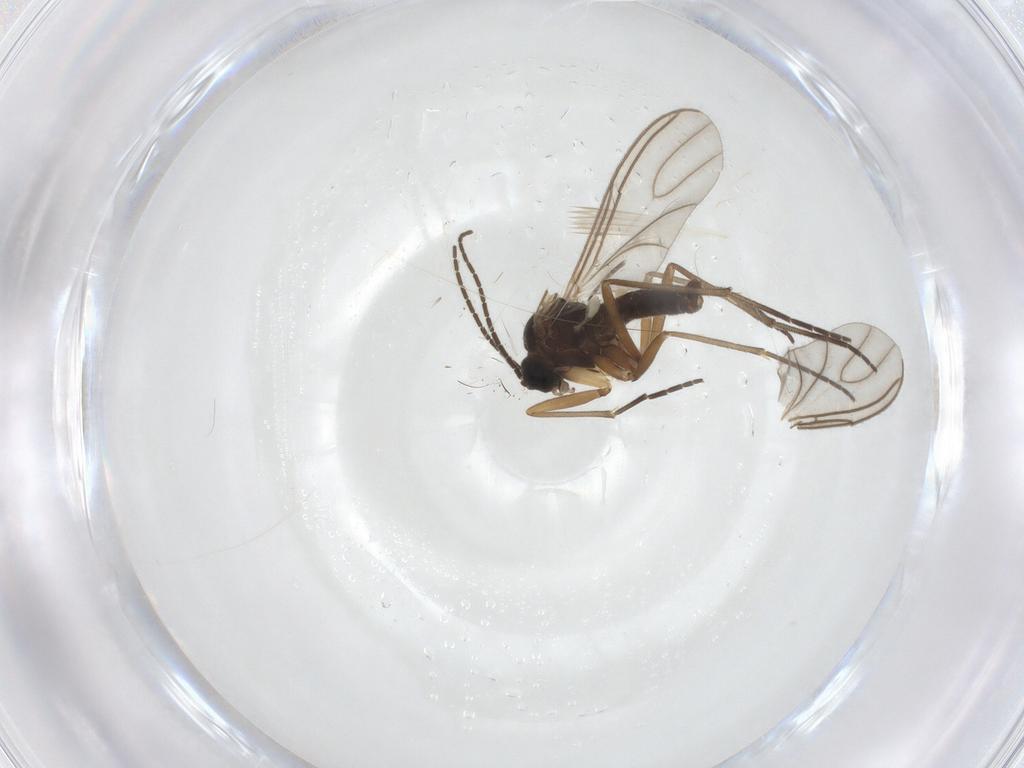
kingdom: Animalia
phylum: Arthropoda
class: Insecta
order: Diptera
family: Sciaridae
